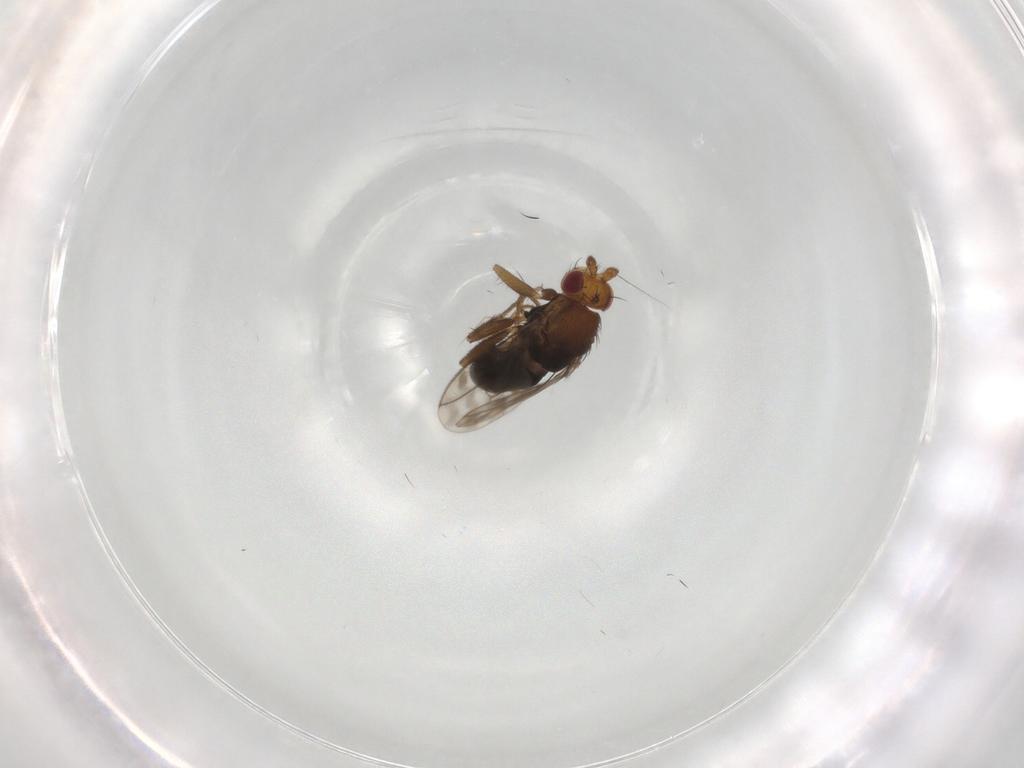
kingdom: Animalia
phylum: Arthropoda
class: Insecta
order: Diptera
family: Sphaeroceridae
